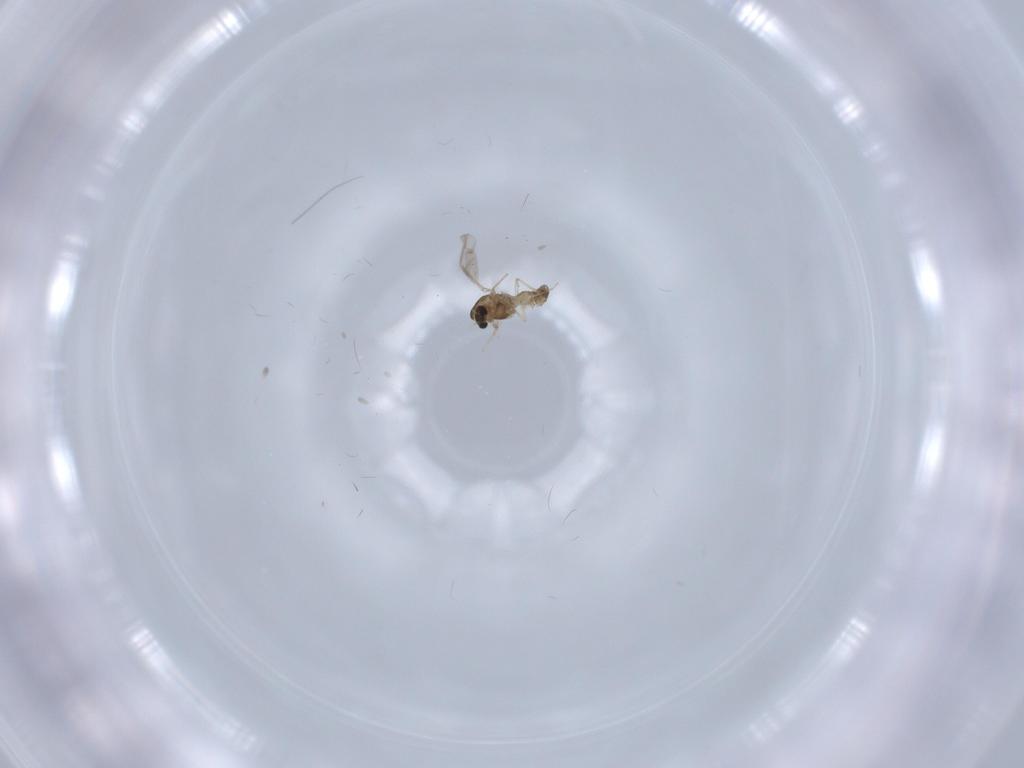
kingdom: Animalia
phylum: Arthropoda
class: Insecta
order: Diptera
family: Chironomidae
